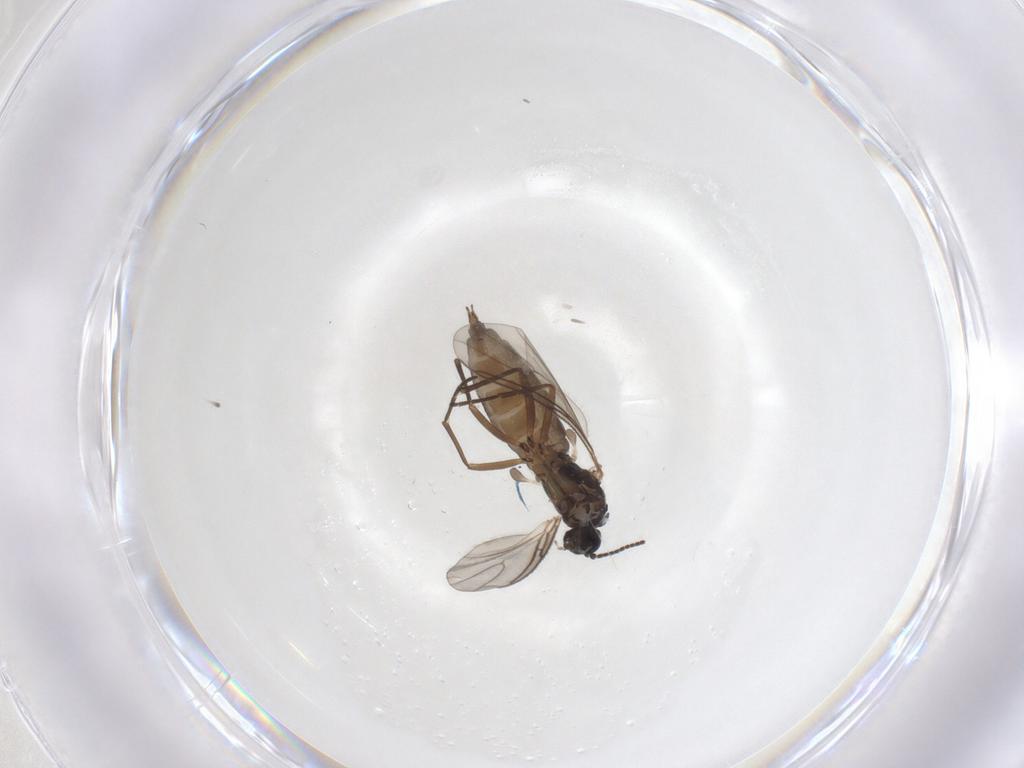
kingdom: Animalia
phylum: Arthropoda
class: Insecta
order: Diptera
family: Sciaridae
